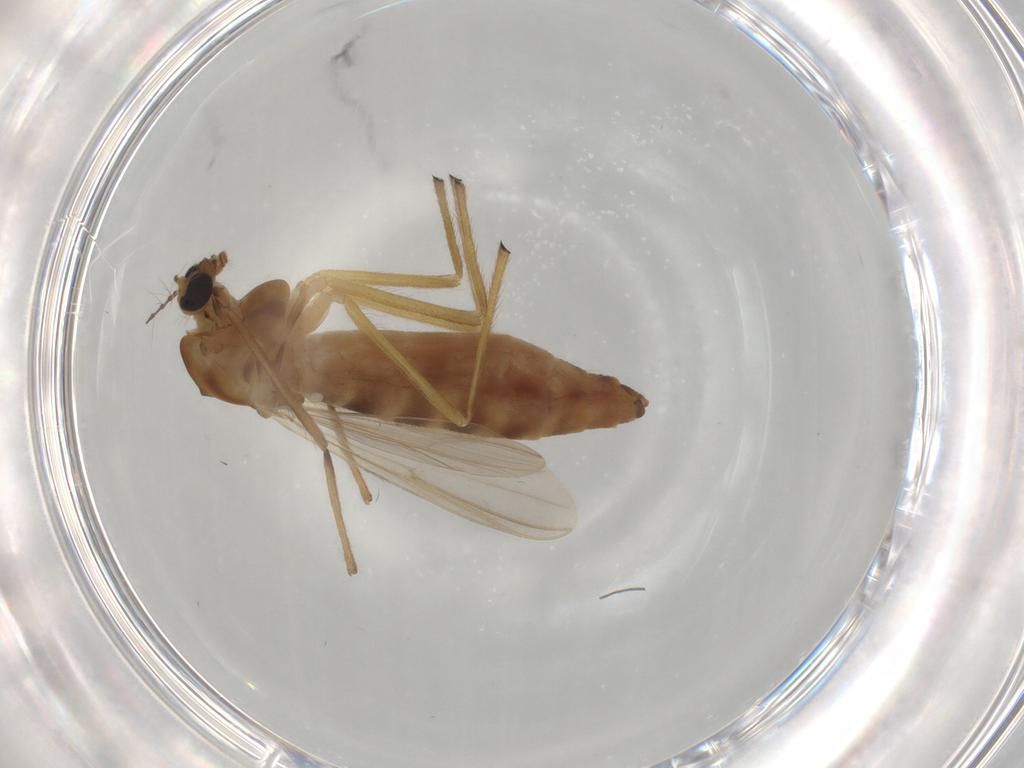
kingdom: Animalia
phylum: Arthropoda
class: Insecta
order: Diptera
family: Chironomidae
